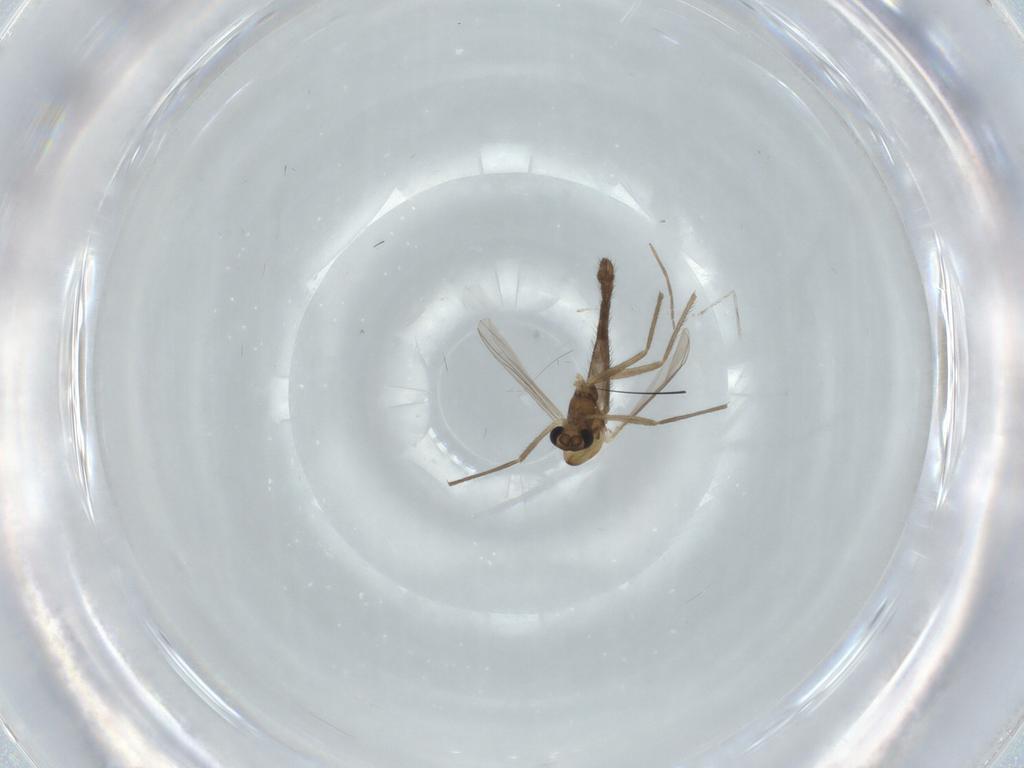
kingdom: Animalia
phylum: Arthropoda
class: Insecta
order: Diptera
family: Chironomidae
